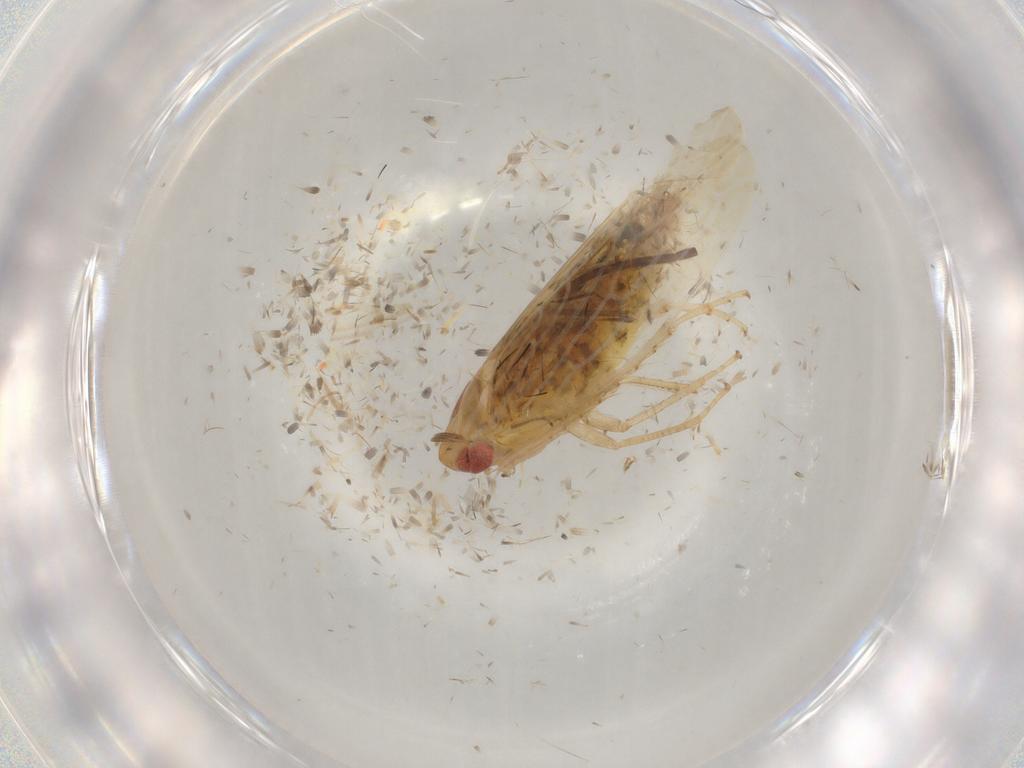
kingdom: Animalia
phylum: Arthropoda
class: Insecta
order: Hemiptera
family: Cicadellidae
